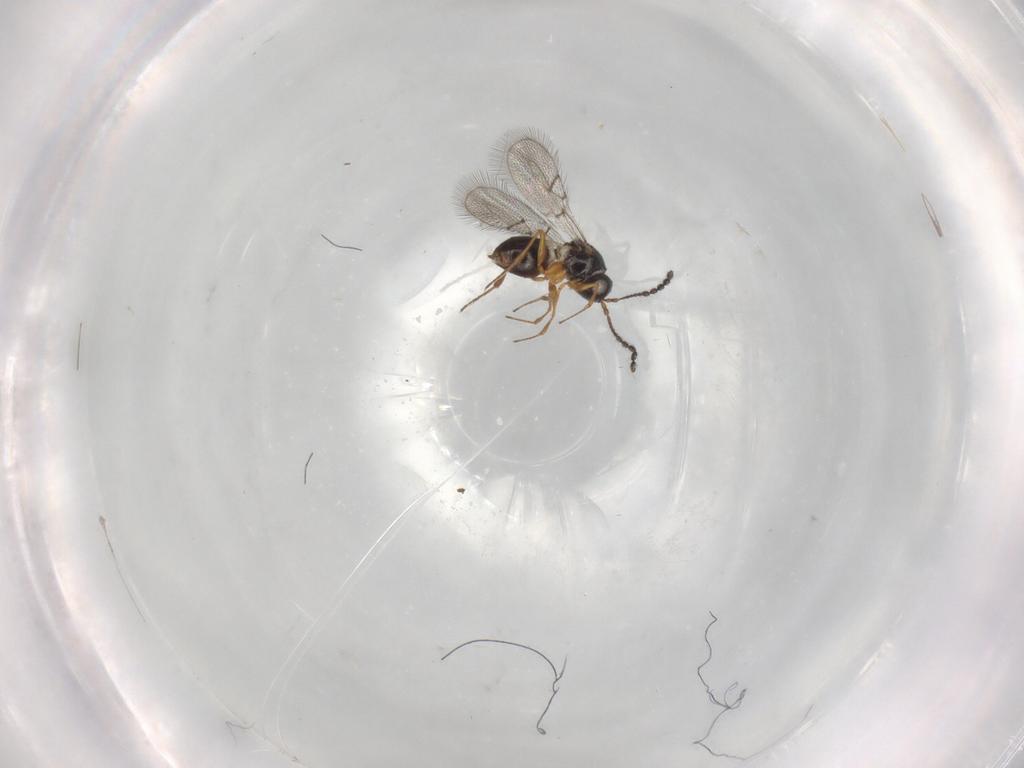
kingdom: Animalia
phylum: Arthropoda
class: Insecta
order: Hymenoptera
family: Figitidae
